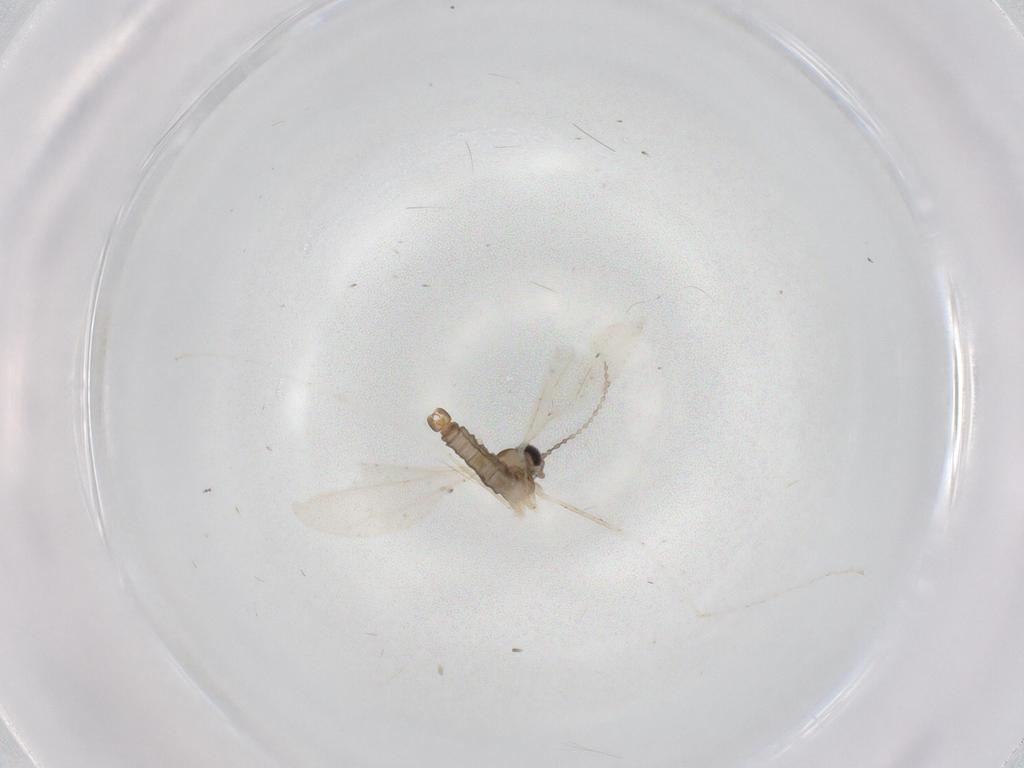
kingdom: Animalia
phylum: Arthropoda
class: Insecta
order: Diptera
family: Cecidomyiidae
